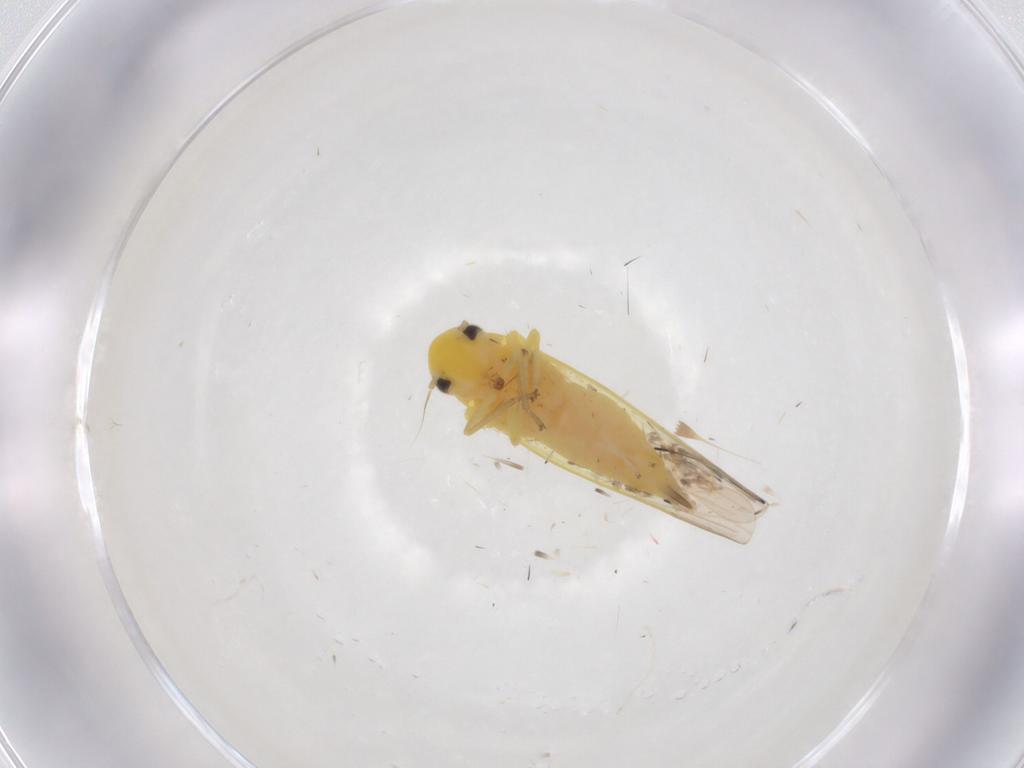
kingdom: Animalia
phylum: Arthropoda
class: Insecta
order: Hemiptera
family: Cicadellidae
